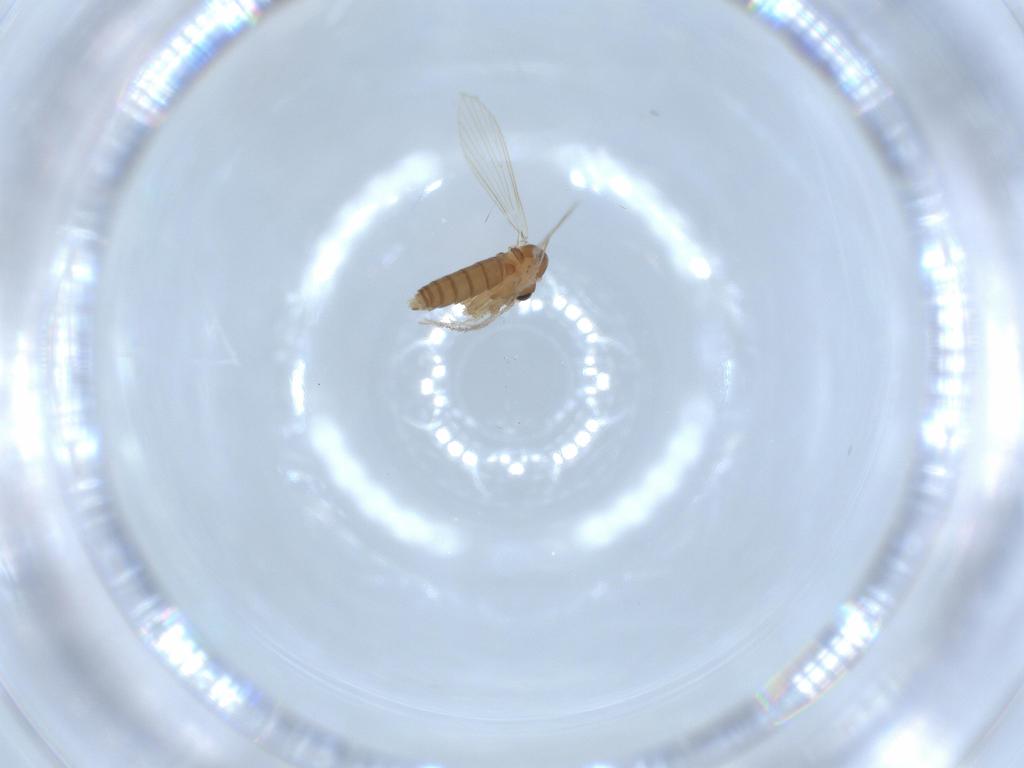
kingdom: Animalia
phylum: Arthropoda
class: Insecta
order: Diptera
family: Psychodidae
